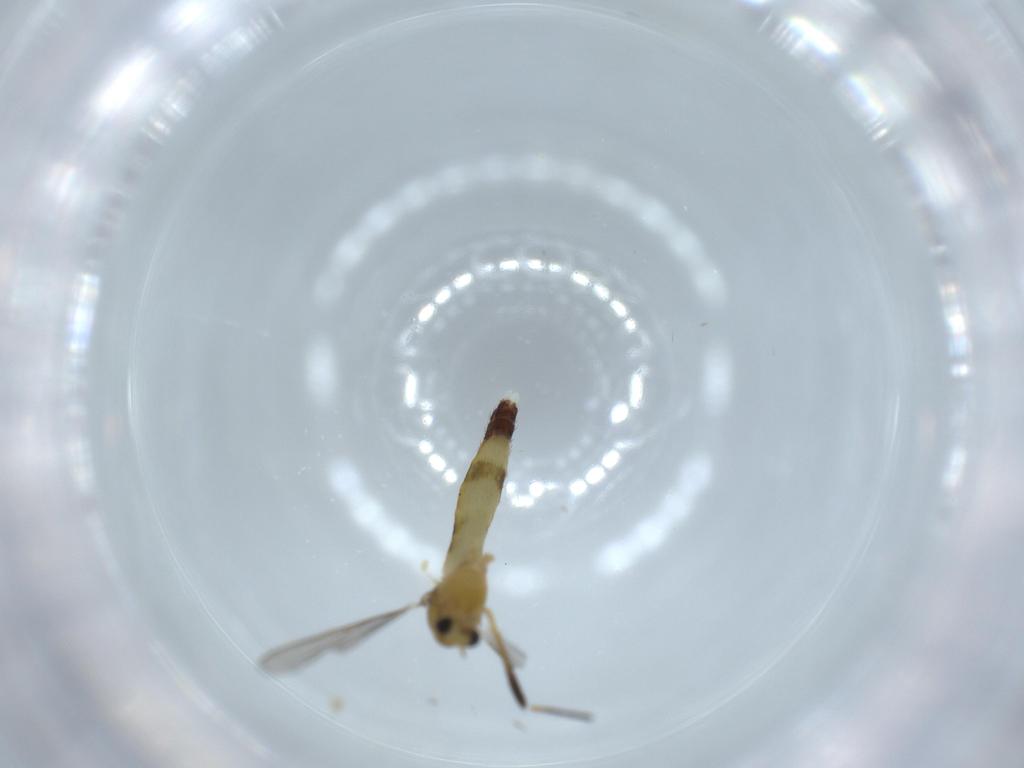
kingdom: Animalia
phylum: Arthropoda
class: Insecta
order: Diptera
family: Chironomidae
